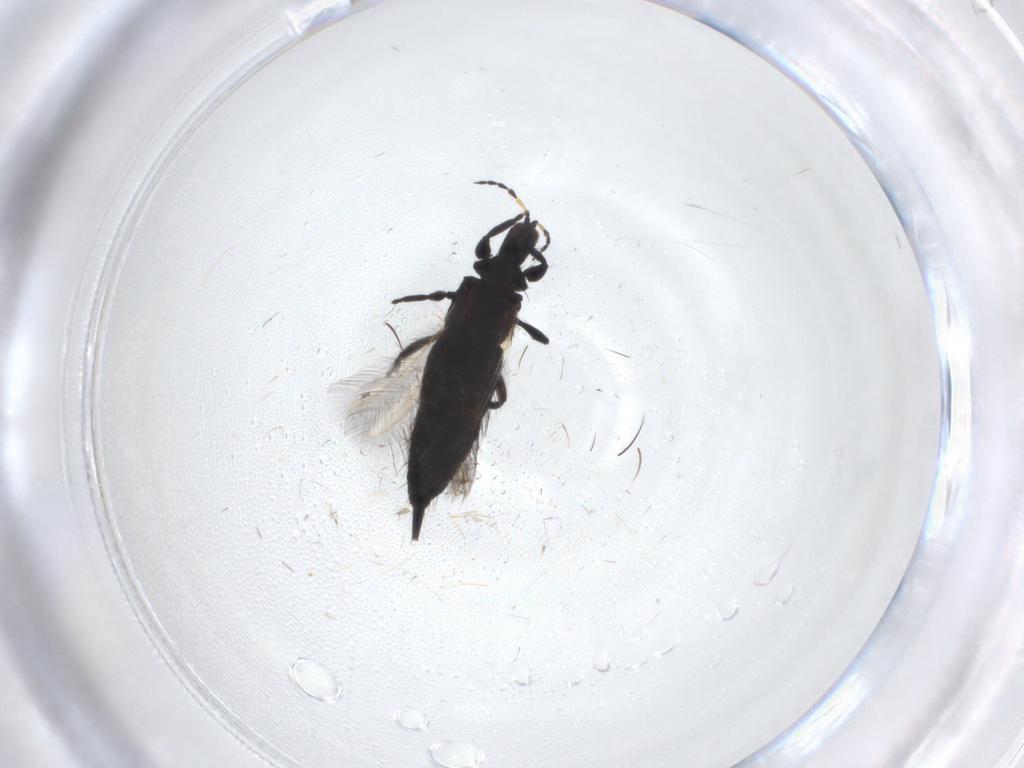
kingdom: Animalia
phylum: Arthropoda
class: Insecta
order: Thysanoptera
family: Phlaeothripidae
